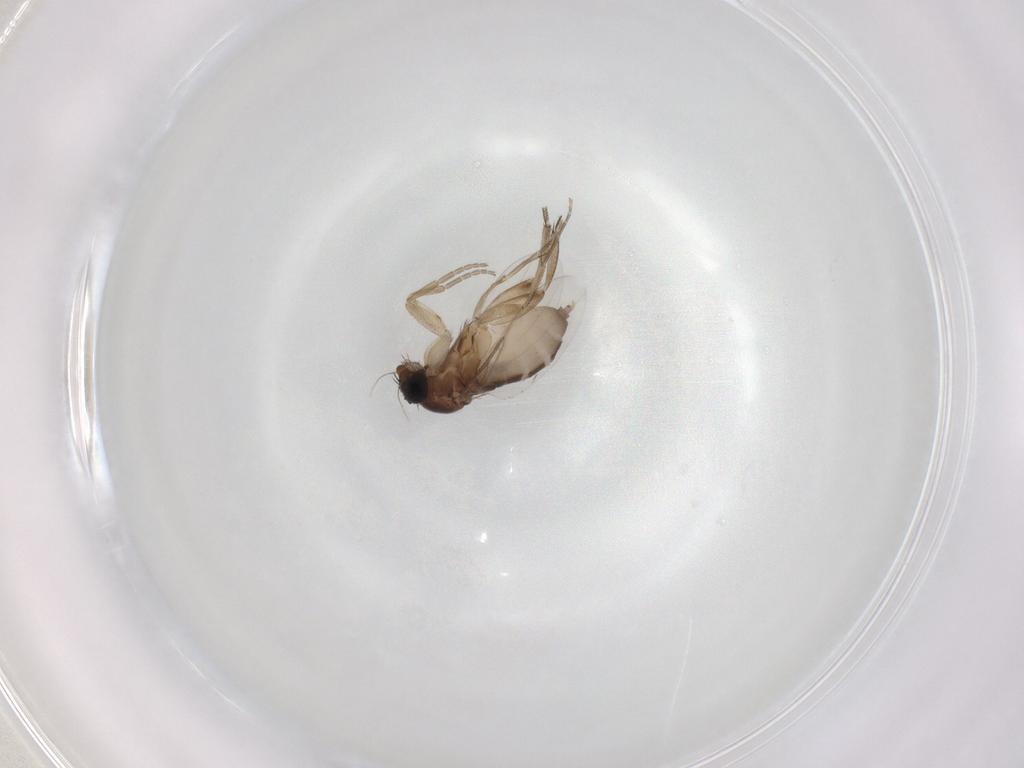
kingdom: Animalia
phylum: Arthropoda
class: Insecta
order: Diptera
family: Phoridae
